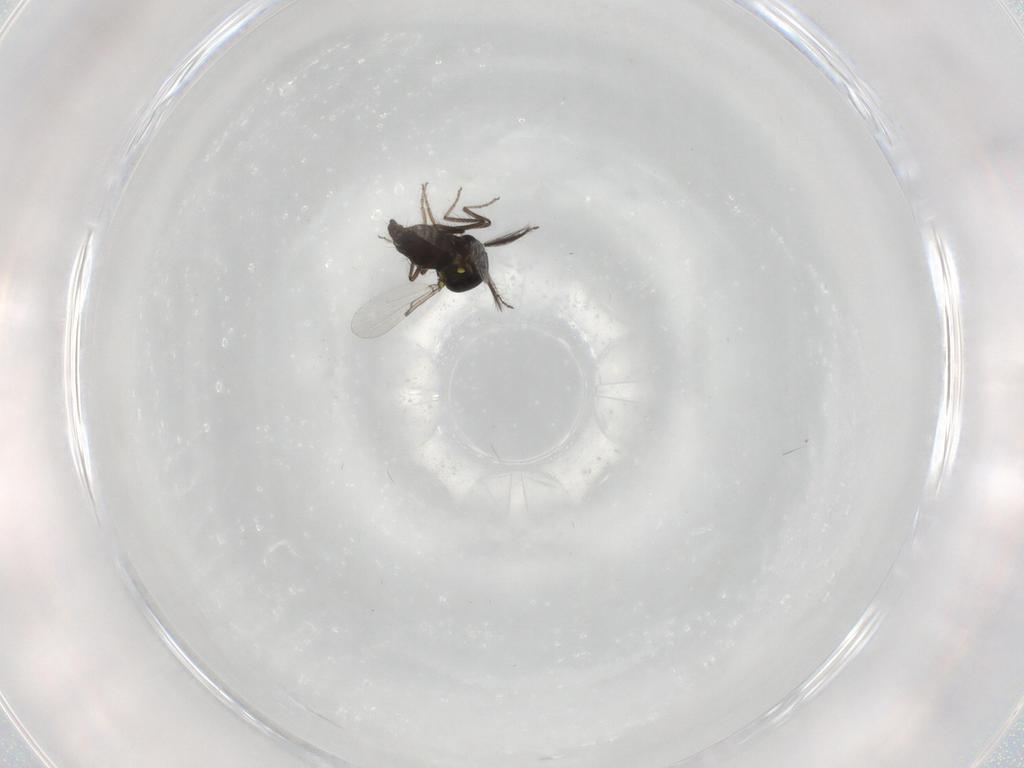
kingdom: Animalia
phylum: Arthropoda
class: Insecta
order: Diptera
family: Ceratopogonidae
